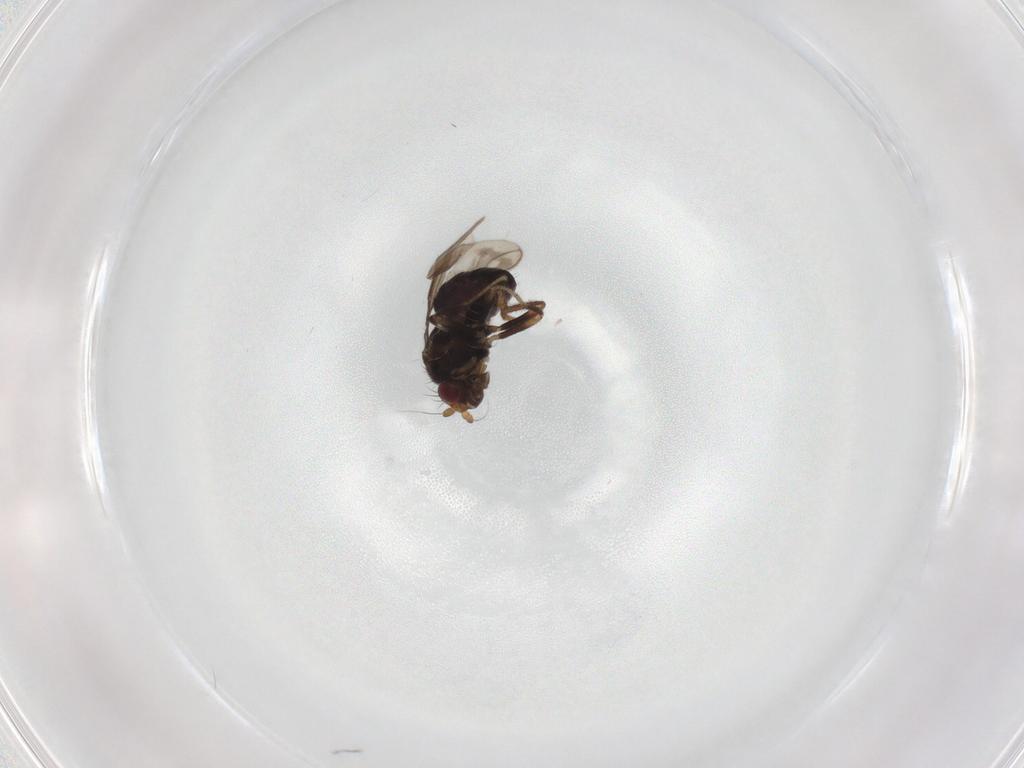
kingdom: Animalia
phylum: Arthropoda
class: Insecta
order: Diptera
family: Sphaeroceridae
